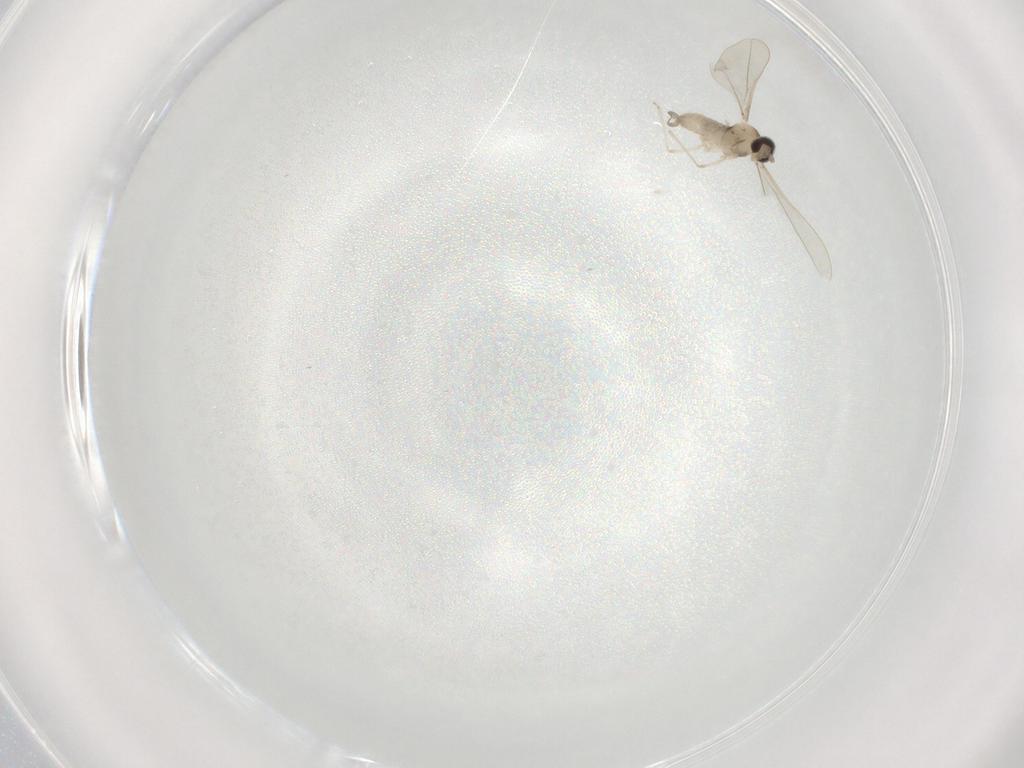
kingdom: Animalia
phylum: Arthropoda
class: Insecta
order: Diptera
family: Cecidomyiidae
